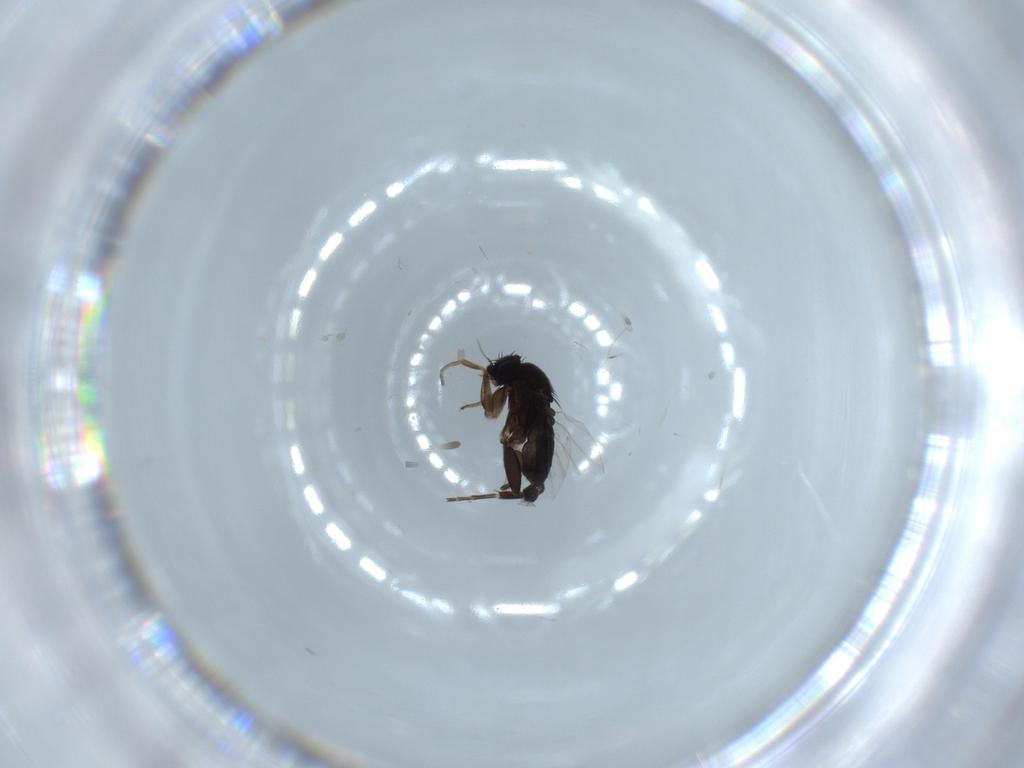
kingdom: Animalia
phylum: Arthropoda
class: Insecta
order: Diptera
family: Phoridae
